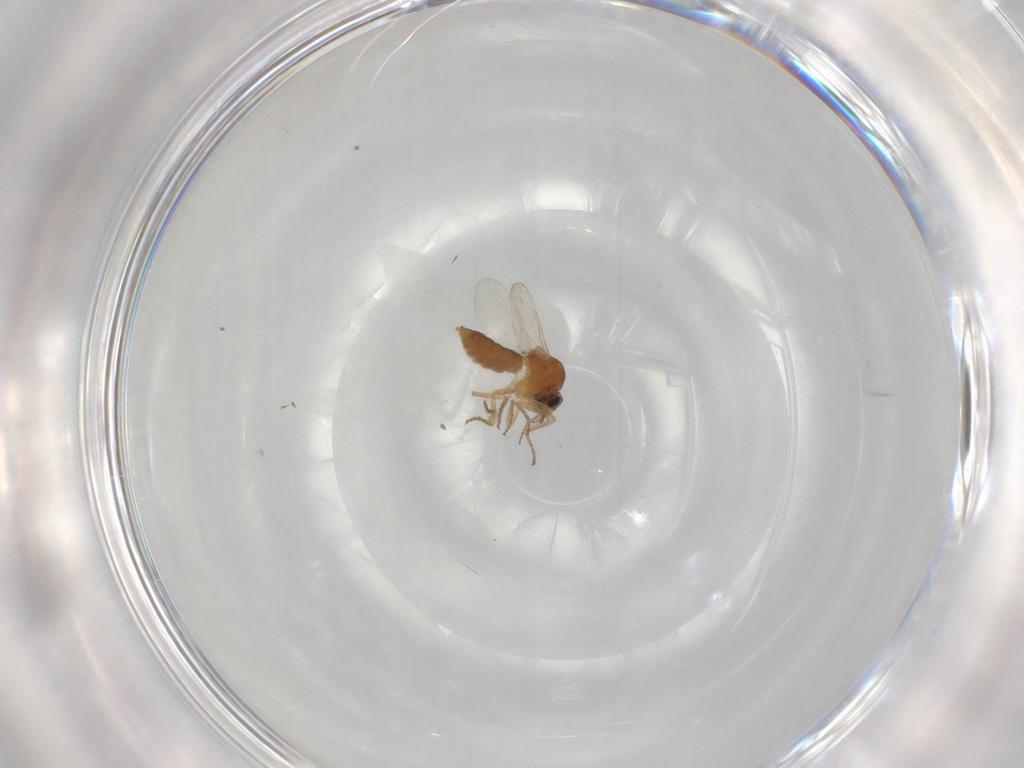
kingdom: Animalia
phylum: Arthropoda
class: Insecta
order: Diptera
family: Ceratopogonidae
